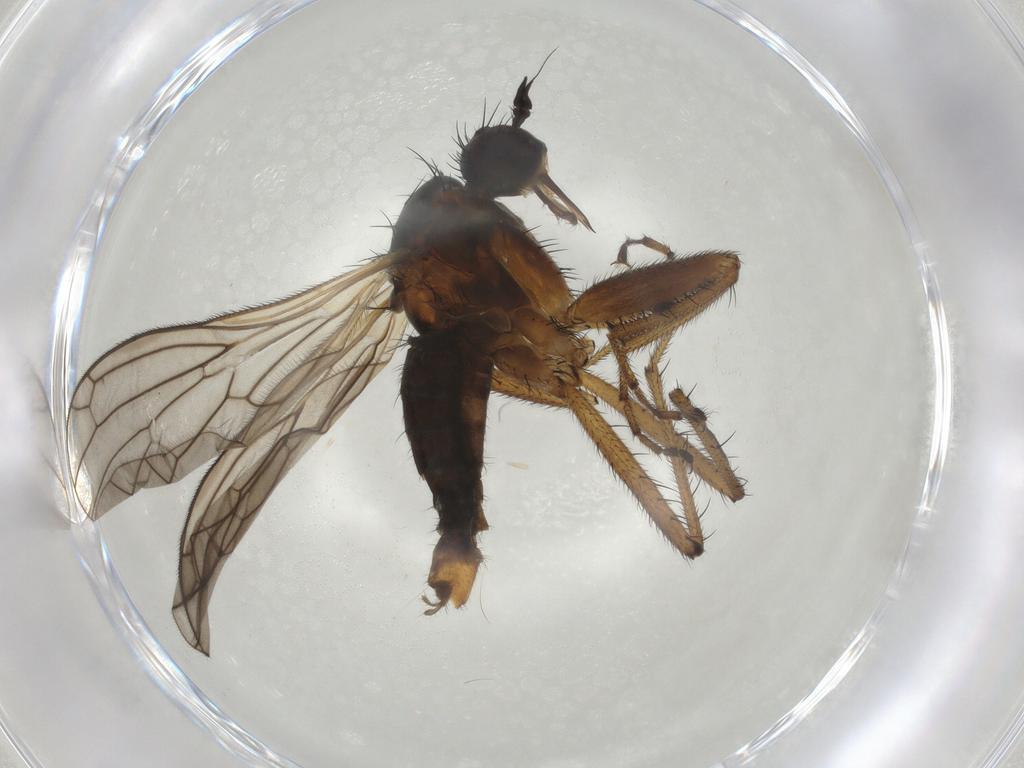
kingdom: Animalia
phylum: Arthropoda
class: Insecta
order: Diptera
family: Empididae
